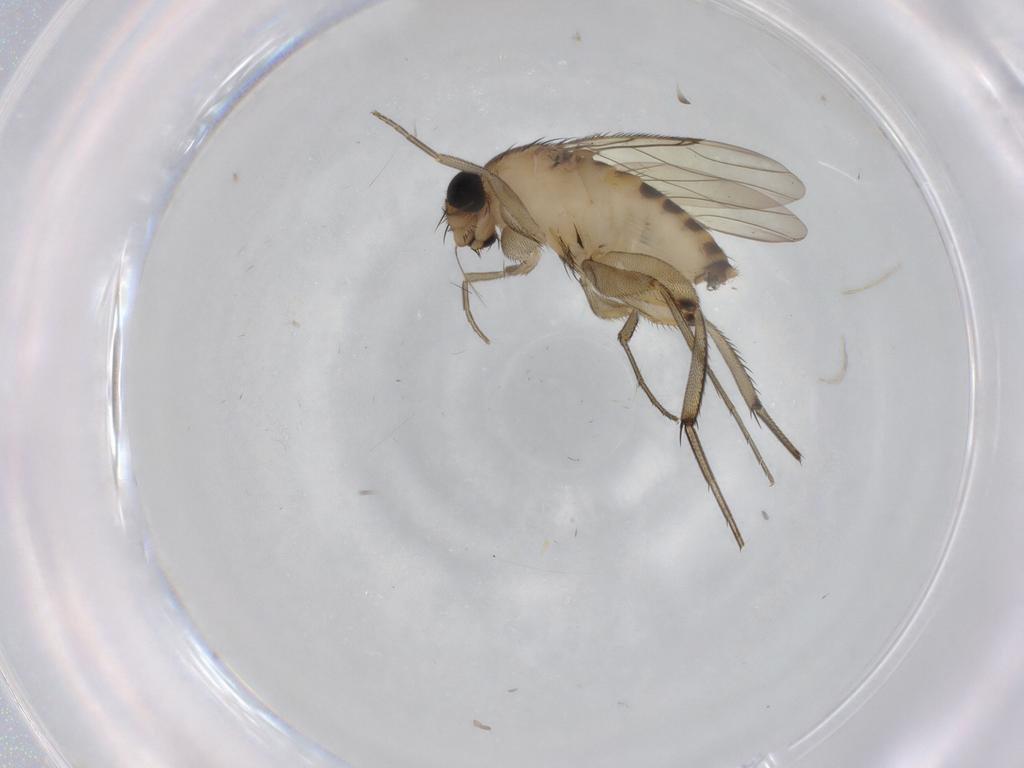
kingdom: Animalia
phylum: Arthropoda
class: Insecta
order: Diptera
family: Phoridae
